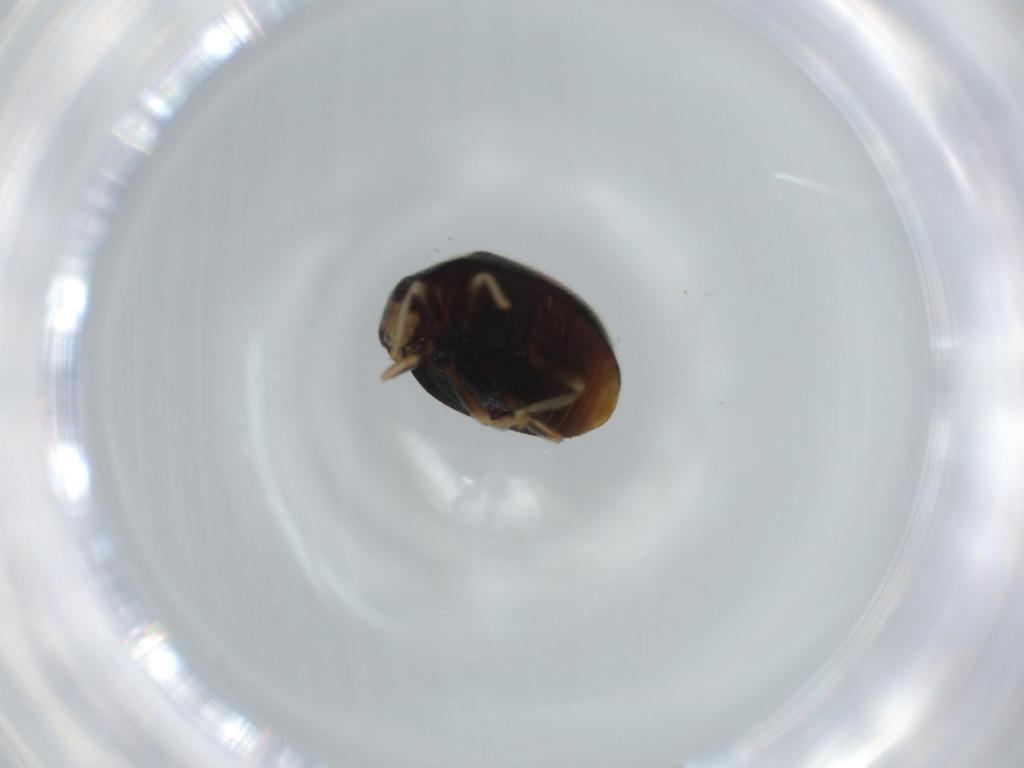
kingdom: Animalia
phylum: Arthropoda
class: Insecta
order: Coleoptera
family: Coccinellidae
